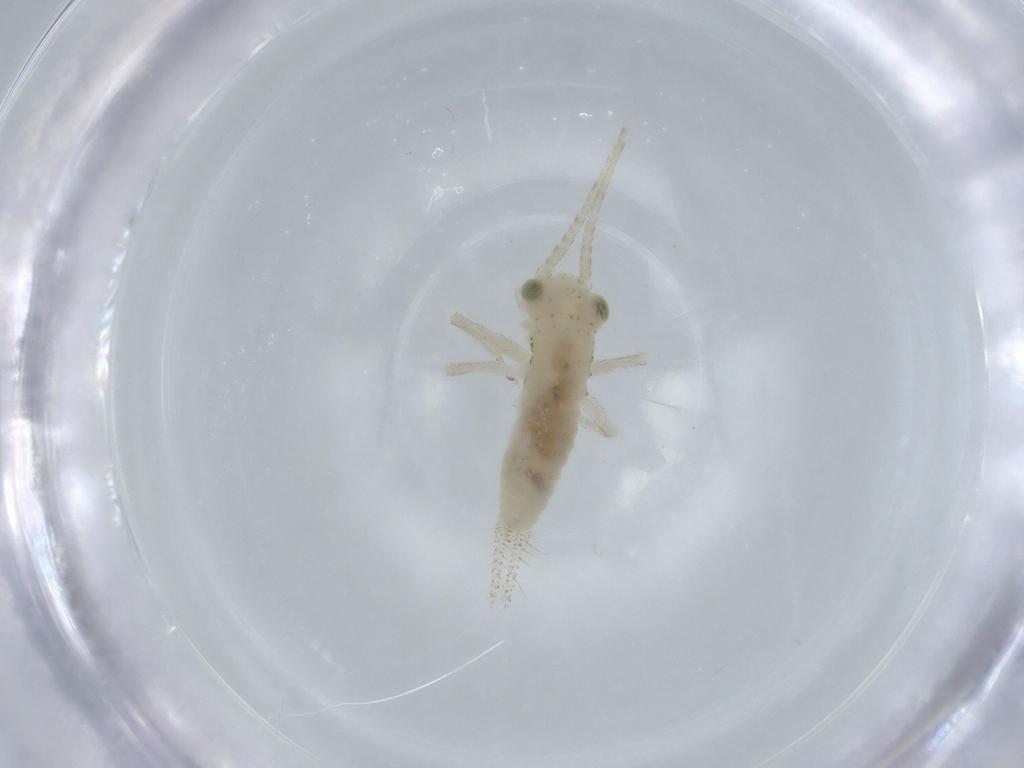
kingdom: Animalia
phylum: Arthropoda
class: Insecta
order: Orthoptera
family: Trigonidiidae
